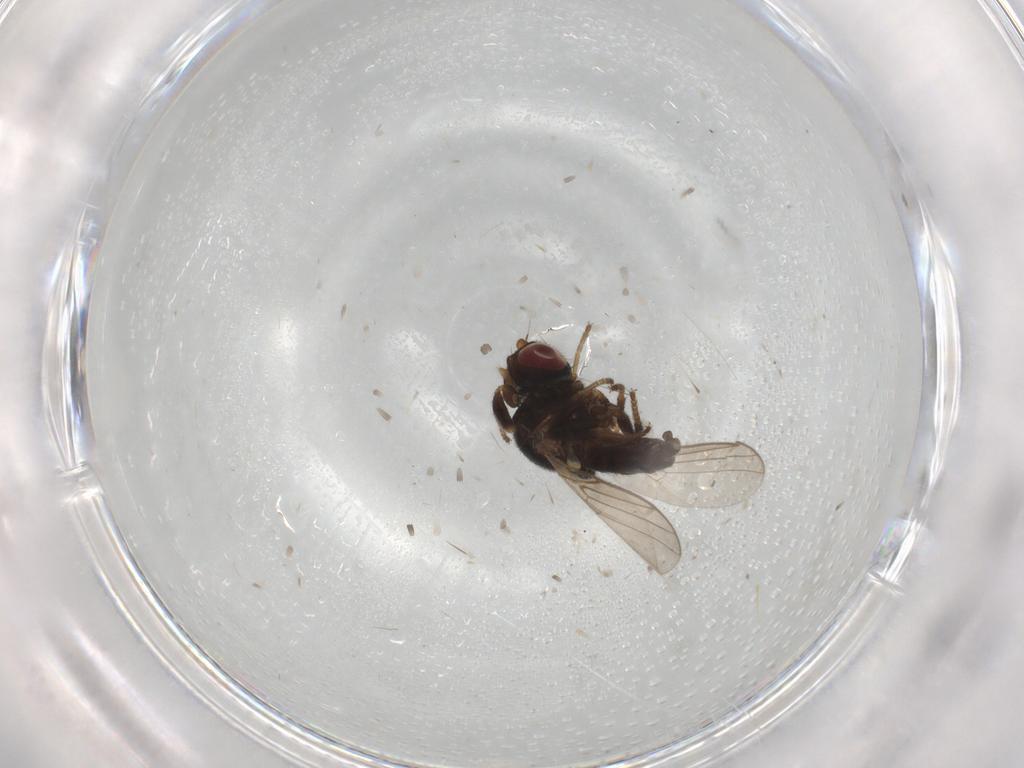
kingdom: Animalia
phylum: Arthropoda
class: Insecta
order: Diptera
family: Chloropidae
